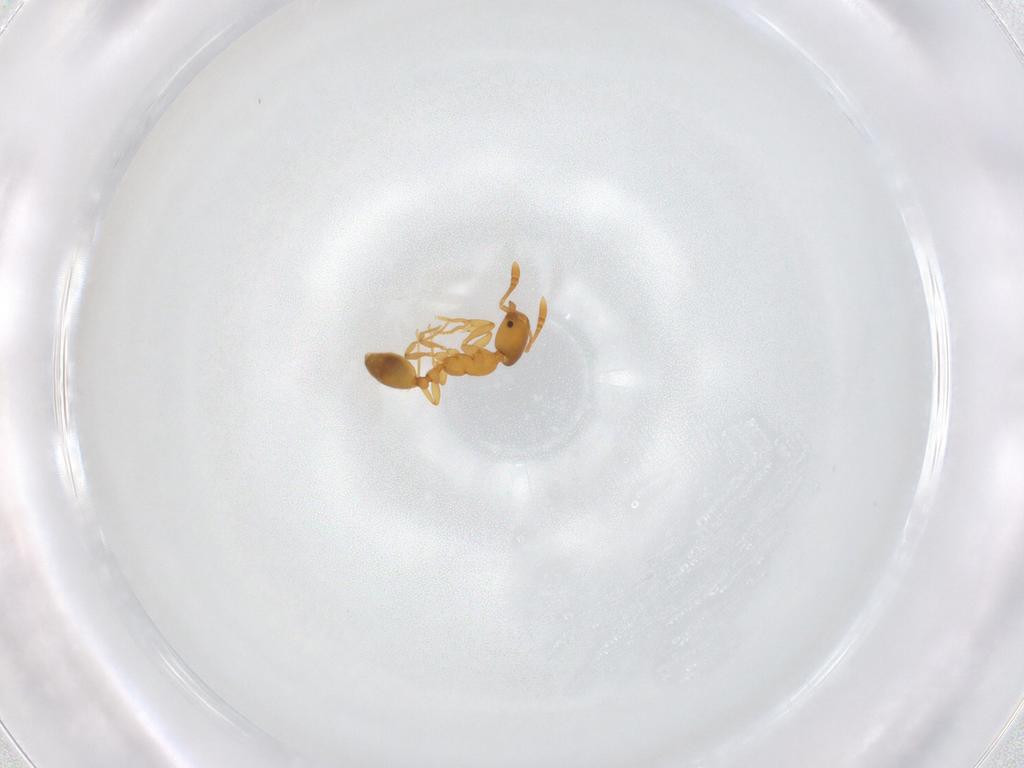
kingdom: Animalia
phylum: Arthropoda
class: Insecta
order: Hymenoptera
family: Formicidae
